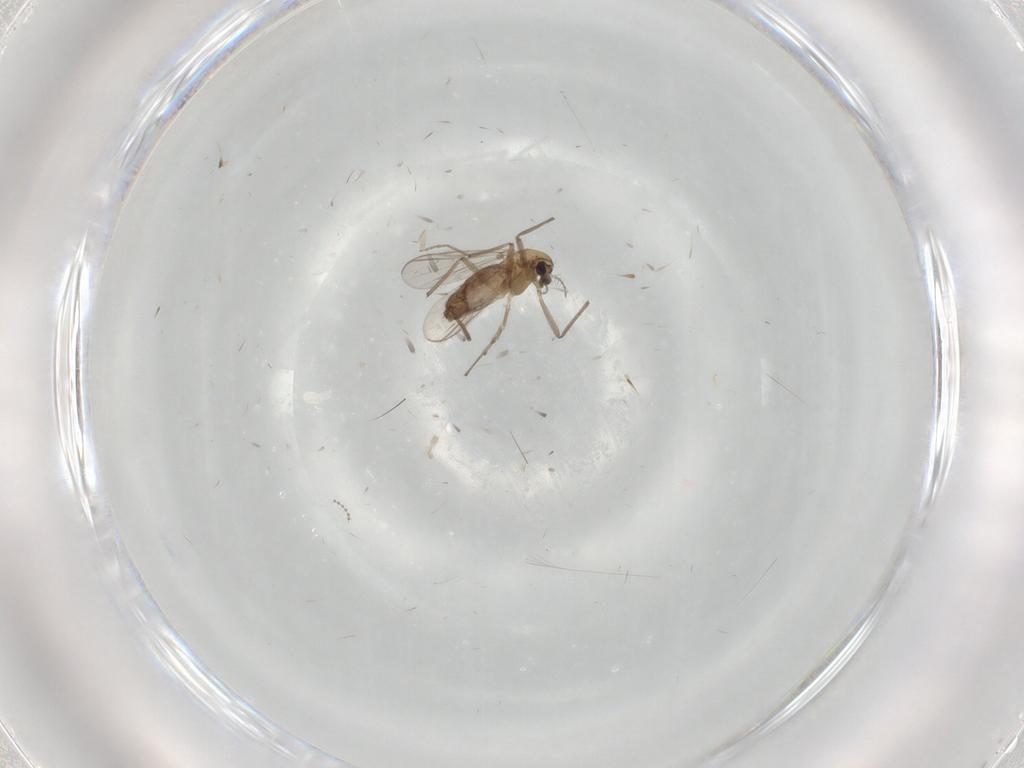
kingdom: Animalia
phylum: Arthropoda
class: Insecta
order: Diptera
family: Chironomidae
